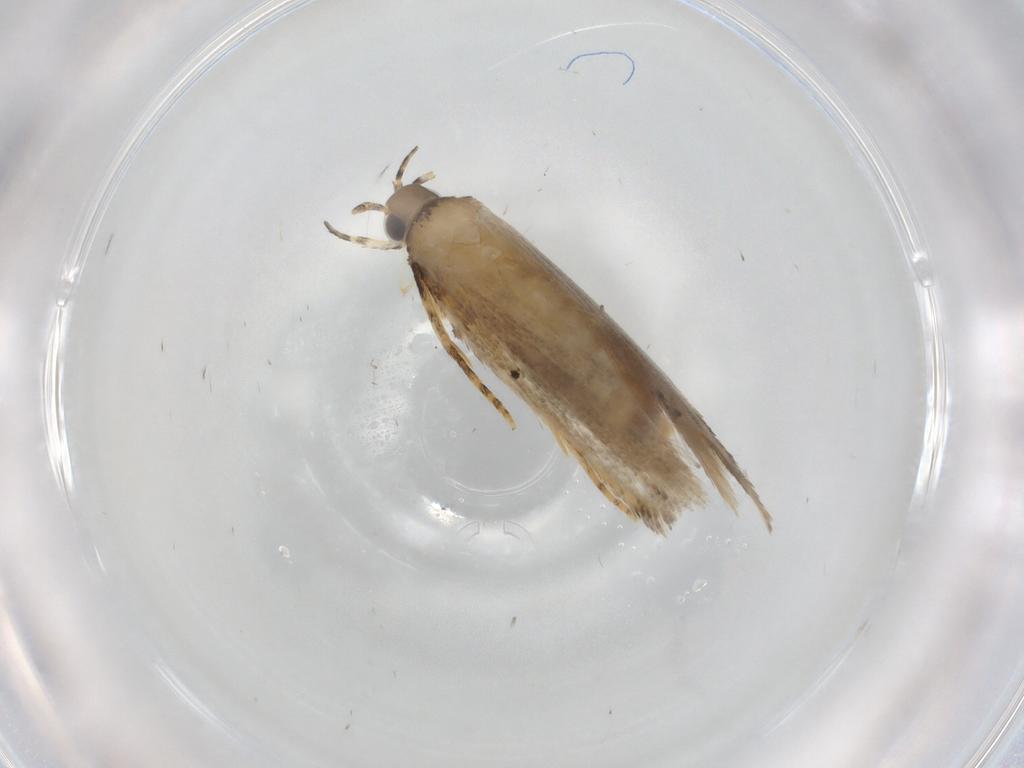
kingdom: Animalia
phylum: Arthropoda
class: Insecta
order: Lepidoptera
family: Autostichidae
